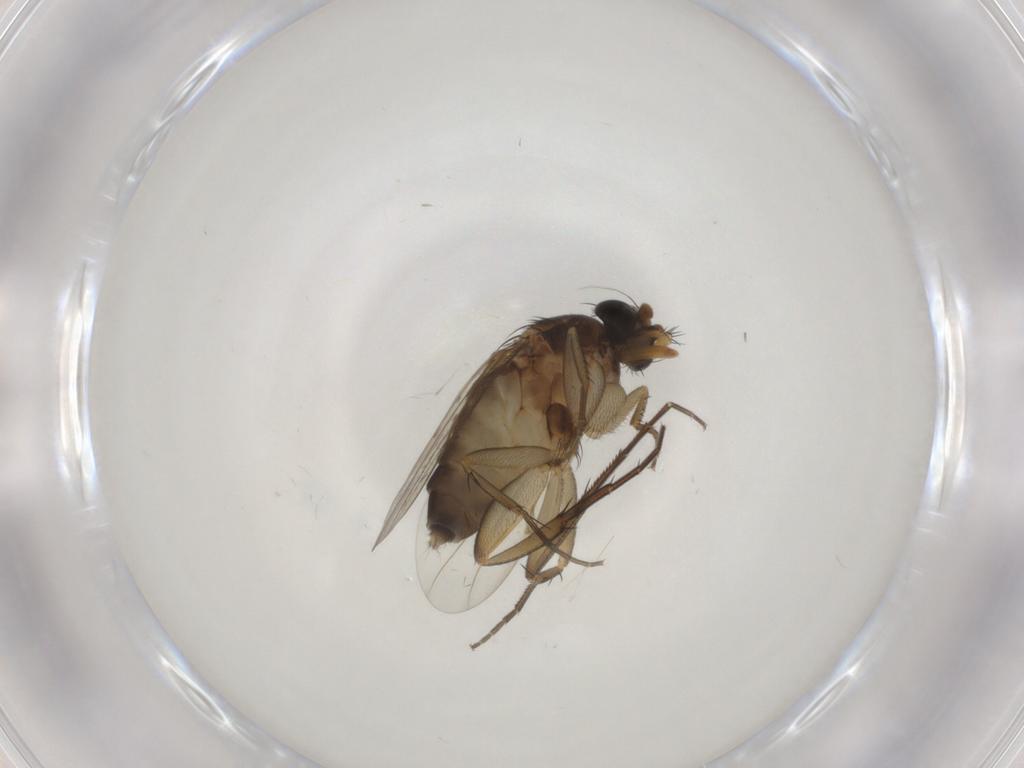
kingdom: Animalia
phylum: Arthropoda
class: Insecta
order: Diptera
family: Phoridae
